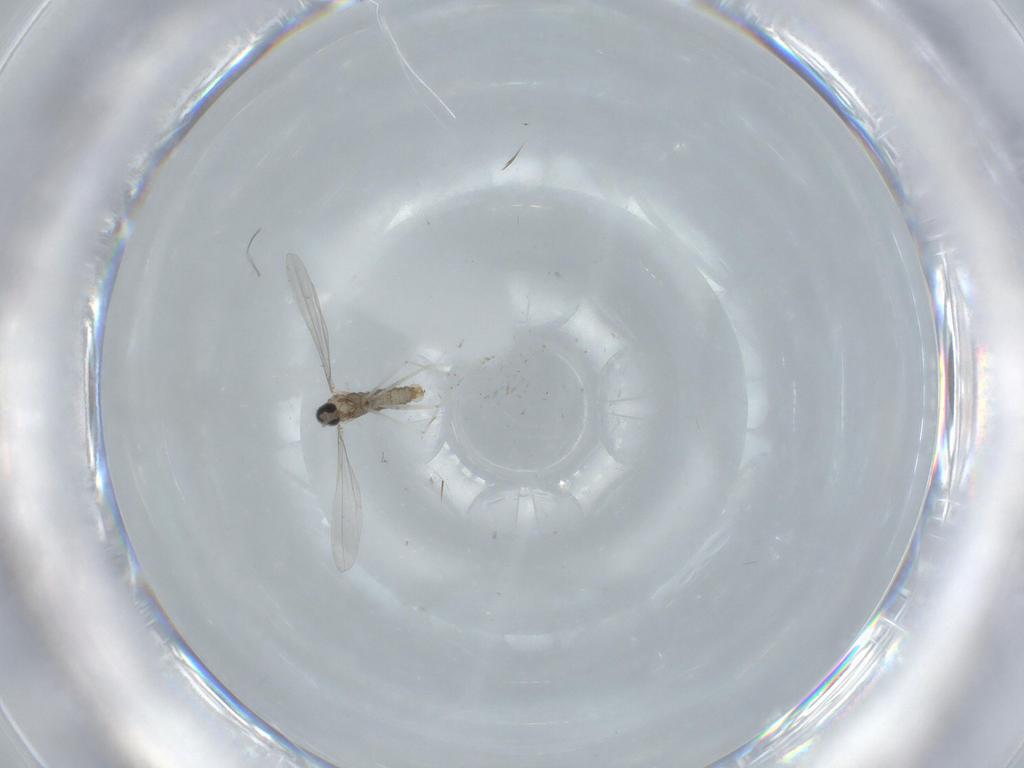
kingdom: Animalia
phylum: Arthropoda
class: Insecta
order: Diptera
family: Cecidomyiidae
